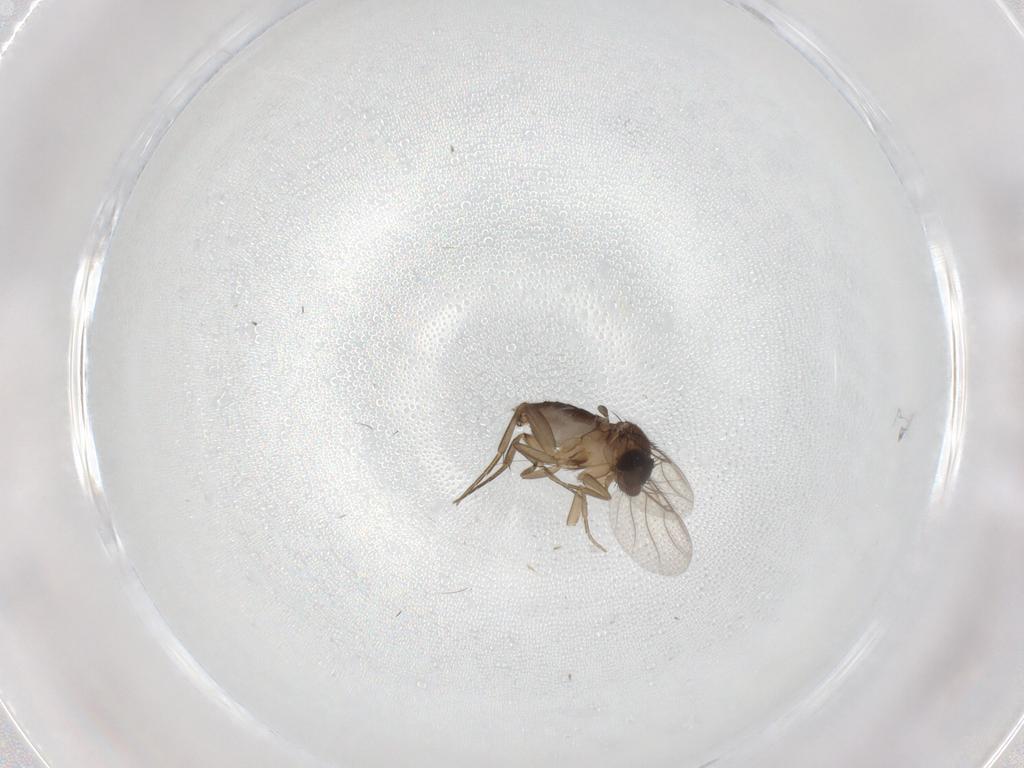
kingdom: Animalia
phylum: Arthropoda
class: Insecta
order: Diptera
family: Phoridae
